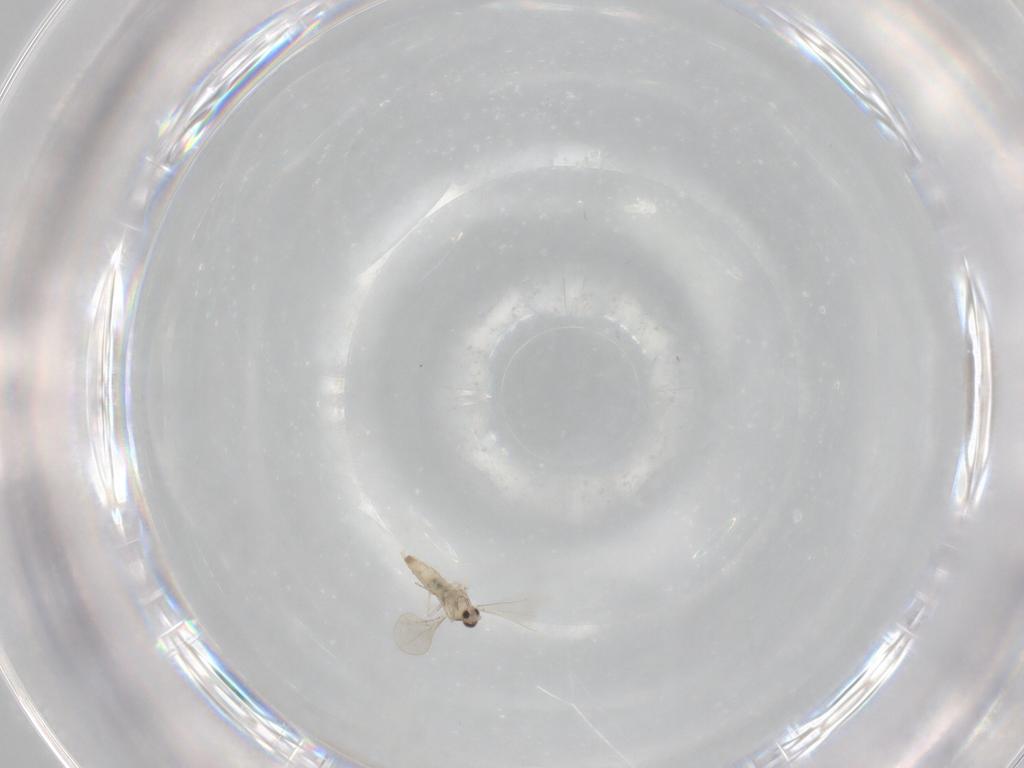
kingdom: Animalia
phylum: Arthropoda
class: Insecta
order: Diptera
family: Cecidomyiidae
